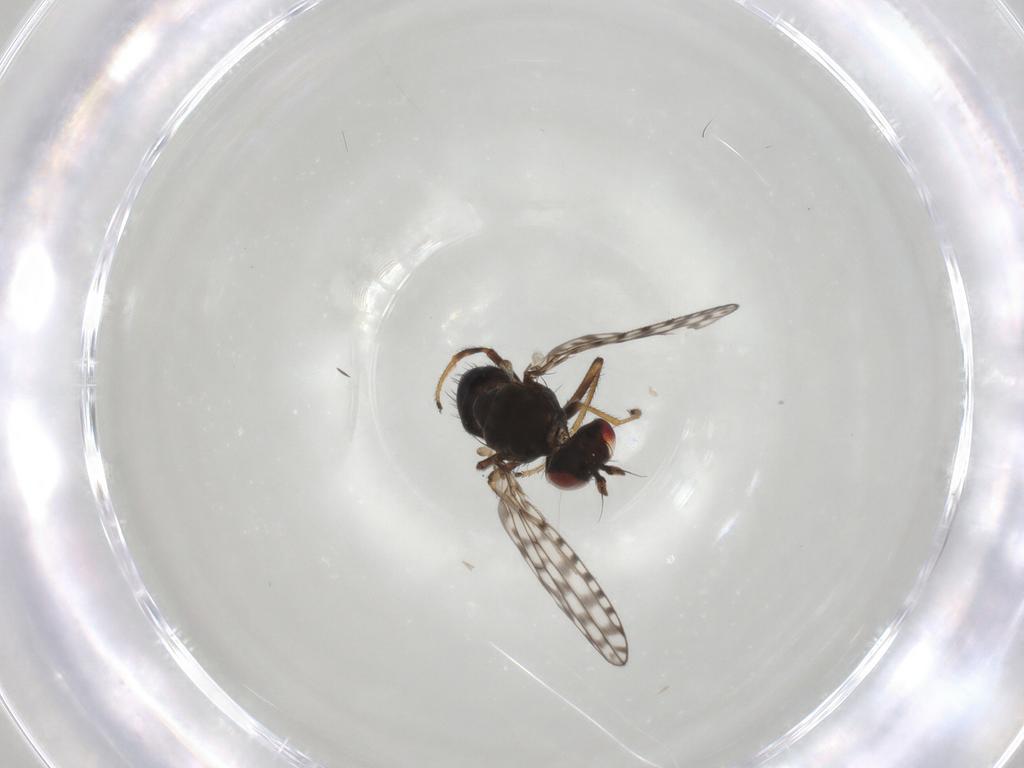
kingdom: Animalia
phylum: Arthropoda
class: Insecta
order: Diptera
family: Ephydridae
